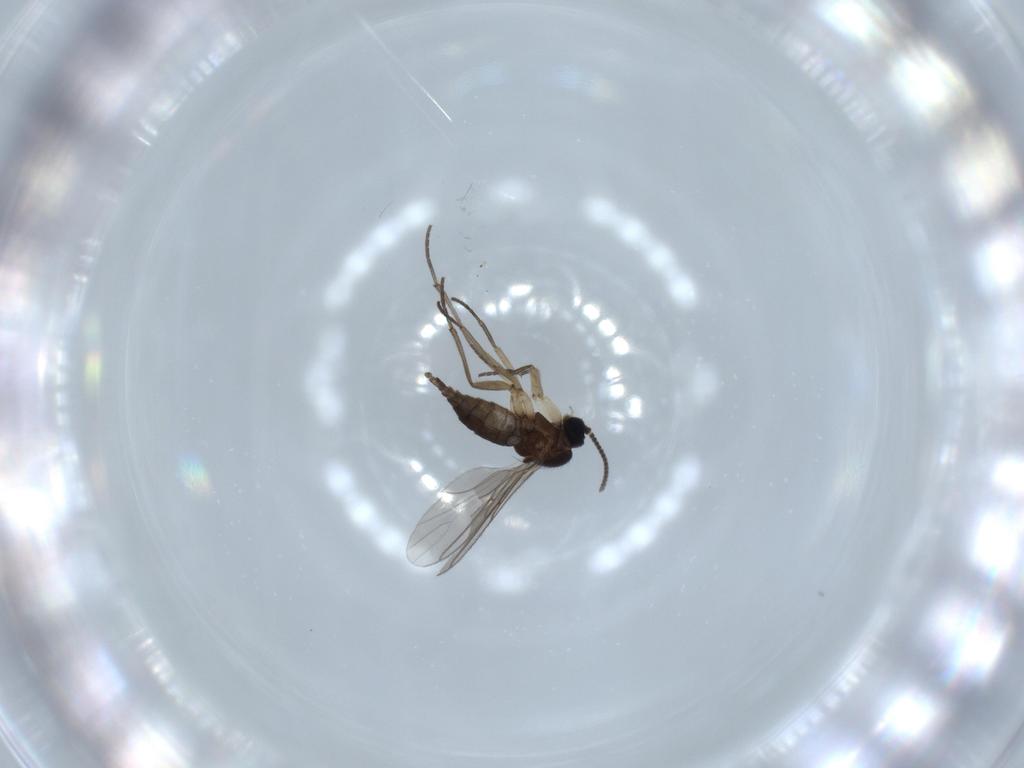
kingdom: Animalia
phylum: Arthropoda
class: Insecta
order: Diptera
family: Sciaridae
